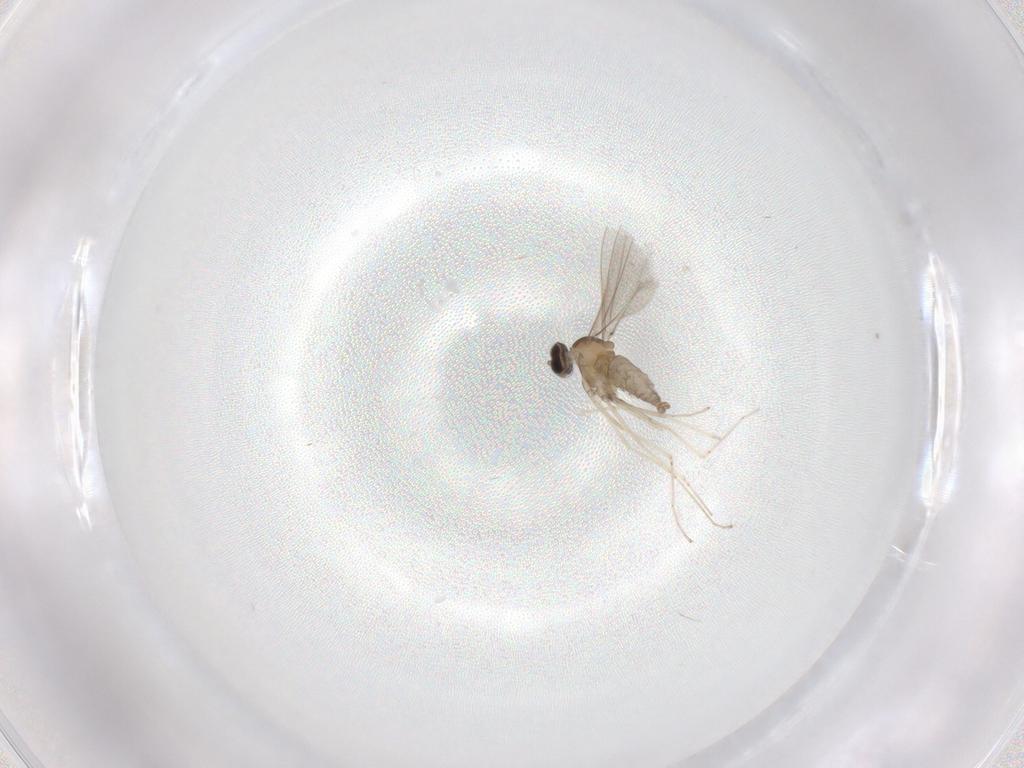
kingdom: Animalia
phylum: Arthropoda
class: Insecta
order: Diptera
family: Cecidomyiidae
